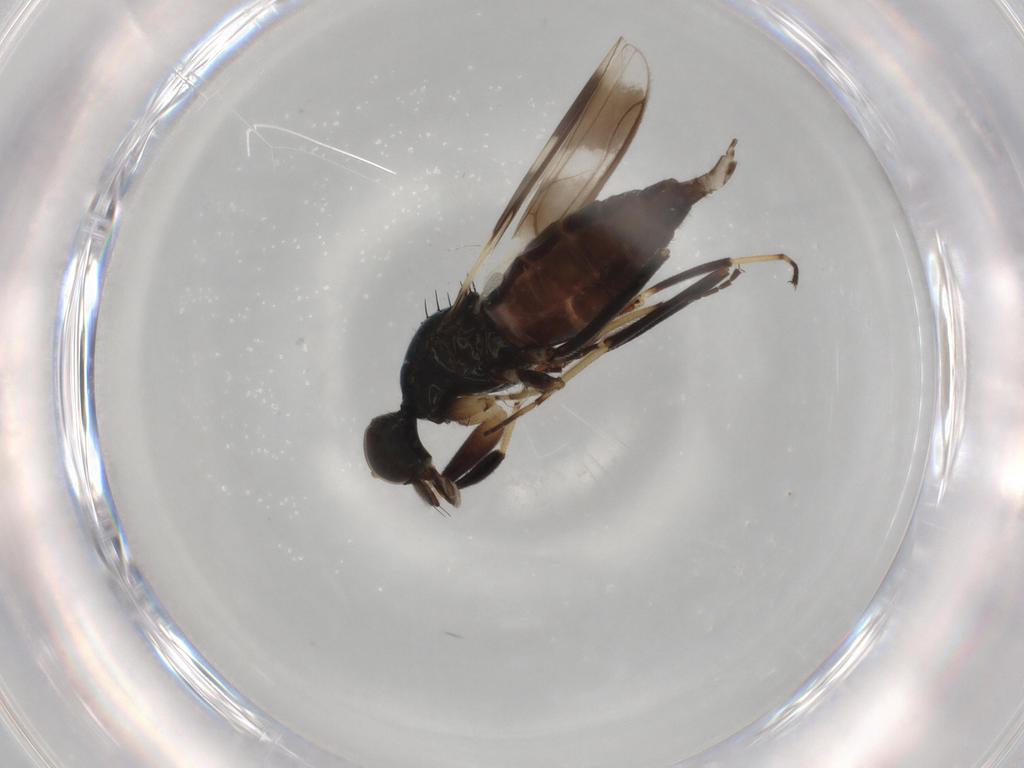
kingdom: Animalia
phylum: Arthropoda
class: Insecta
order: Diptera
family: Hybotidae
